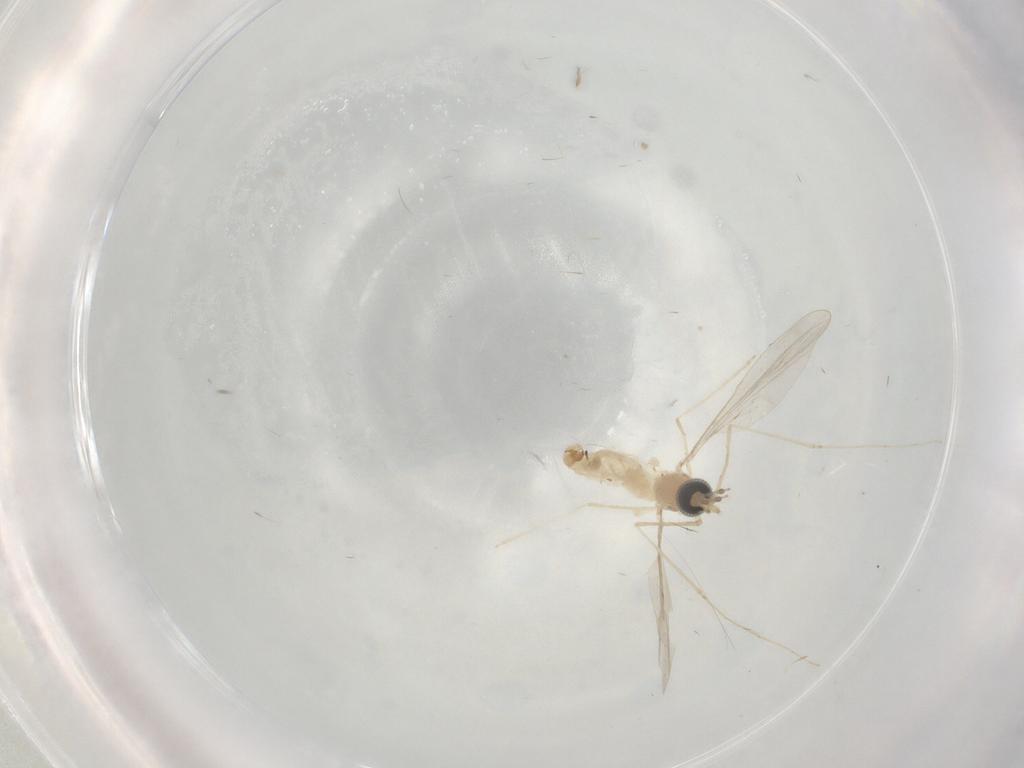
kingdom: Animalia
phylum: Arthropoda
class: Insecta
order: Diptera
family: Cecidomyiidae
